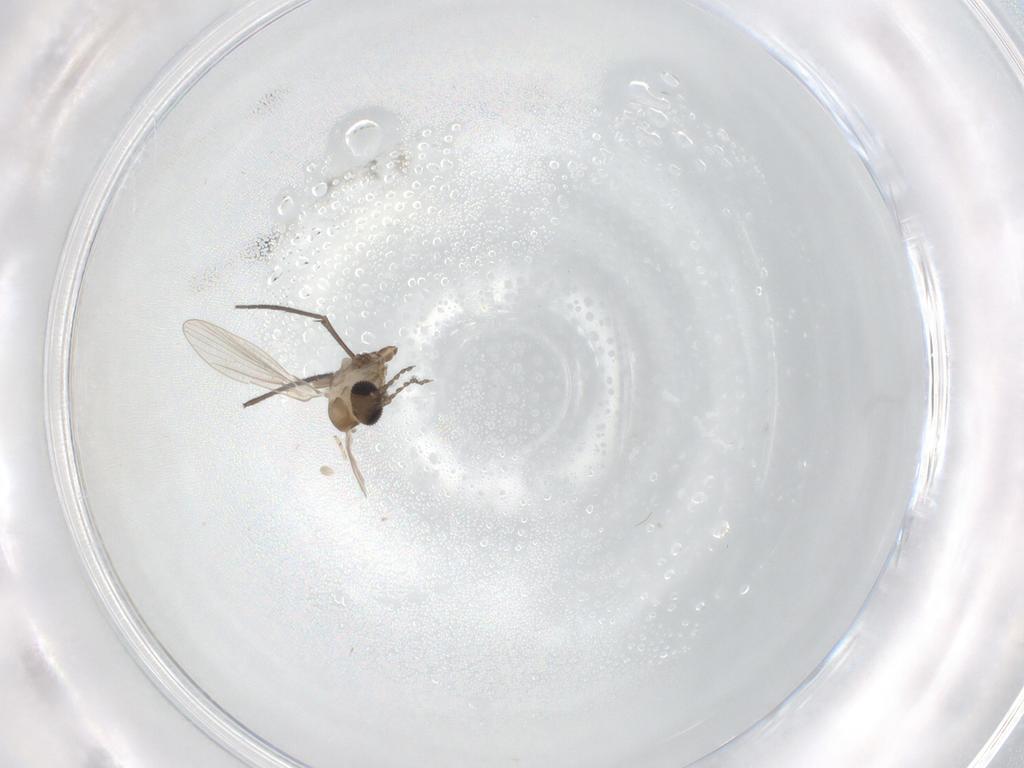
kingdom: Animalia
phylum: Arthropoda
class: Insecta
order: Diptera
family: Sciaridae
